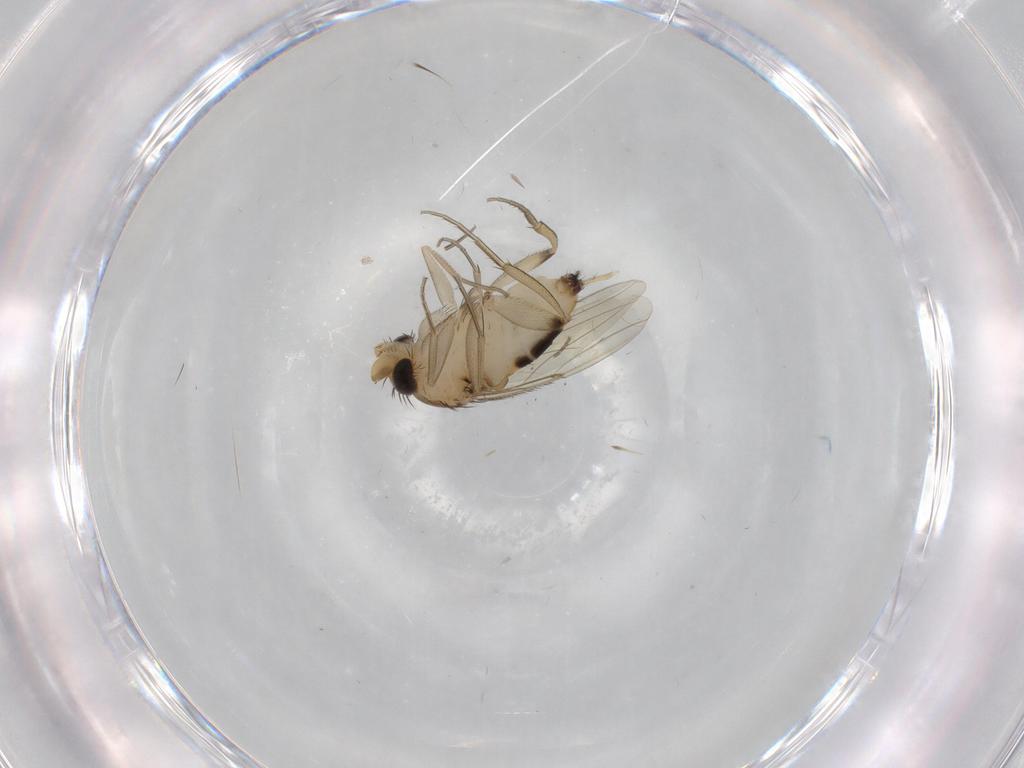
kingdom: Animalia
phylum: Arthropoda
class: Insecta
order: Diptera
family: Phoridae
